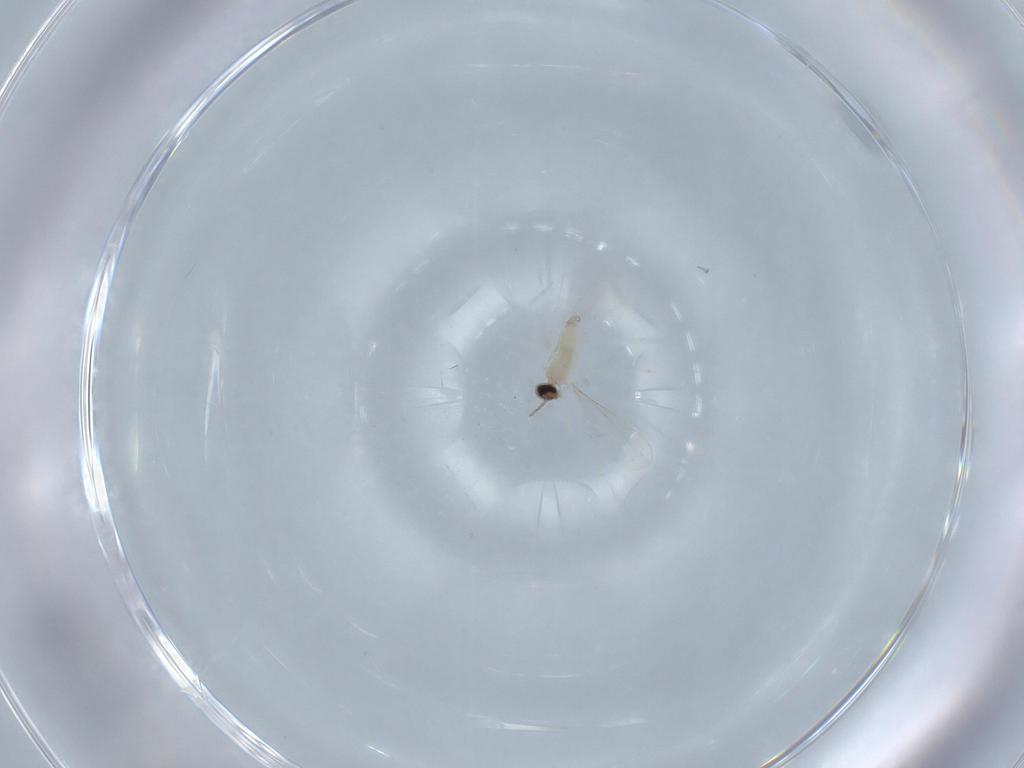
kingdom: Animalia
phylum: Arthropoda
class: Insecta
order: Diptera
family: Cecidomyiidae
